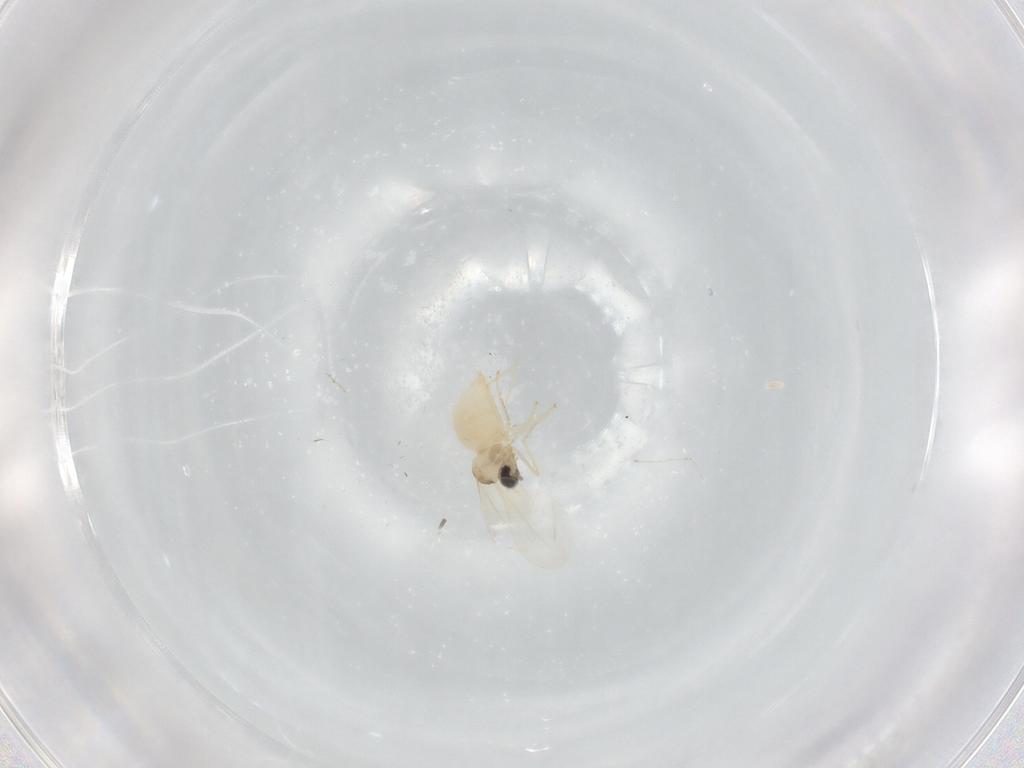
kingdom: Animalia
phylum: Arthropoda
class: Insecta
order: Diptera
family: Cecidomyiidae
